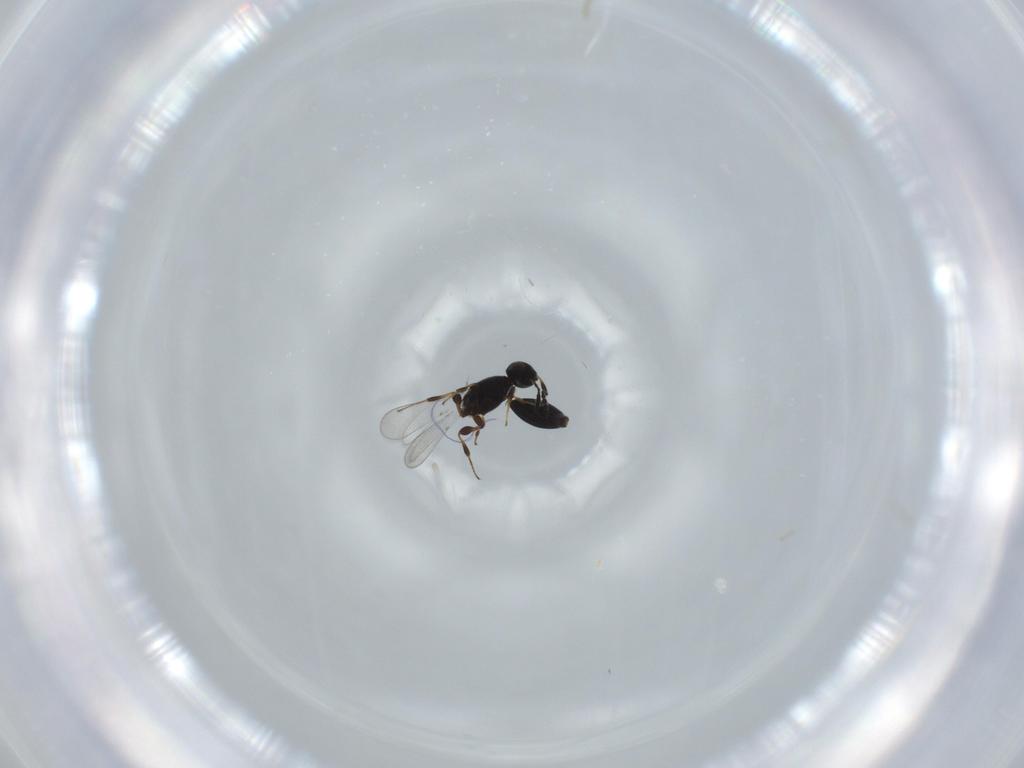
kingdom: Animalia
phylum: Arthropoda
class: Insecta
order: Hymenoptera
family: Platygastridae
